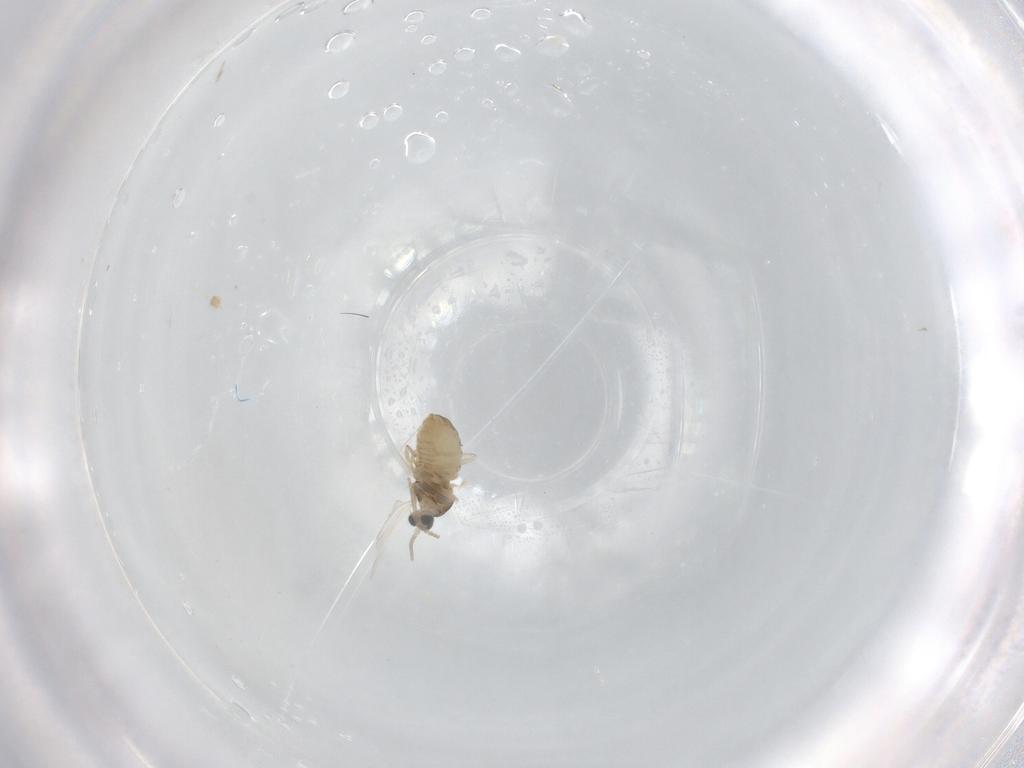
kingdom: Animalia
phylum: Arthropoda
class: Insecta
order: Diptera
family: Cecidomyiidae
